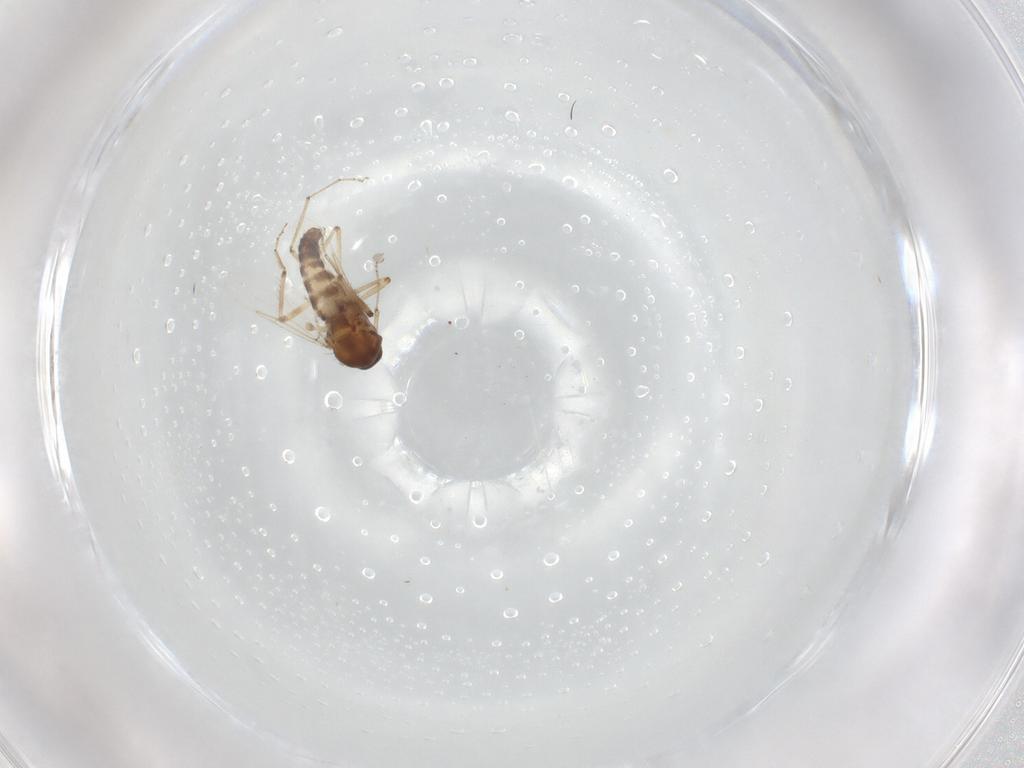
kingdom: Animalia
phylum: Arthropoda
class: Insecta
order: Diptera
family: Ceratopogonidae
